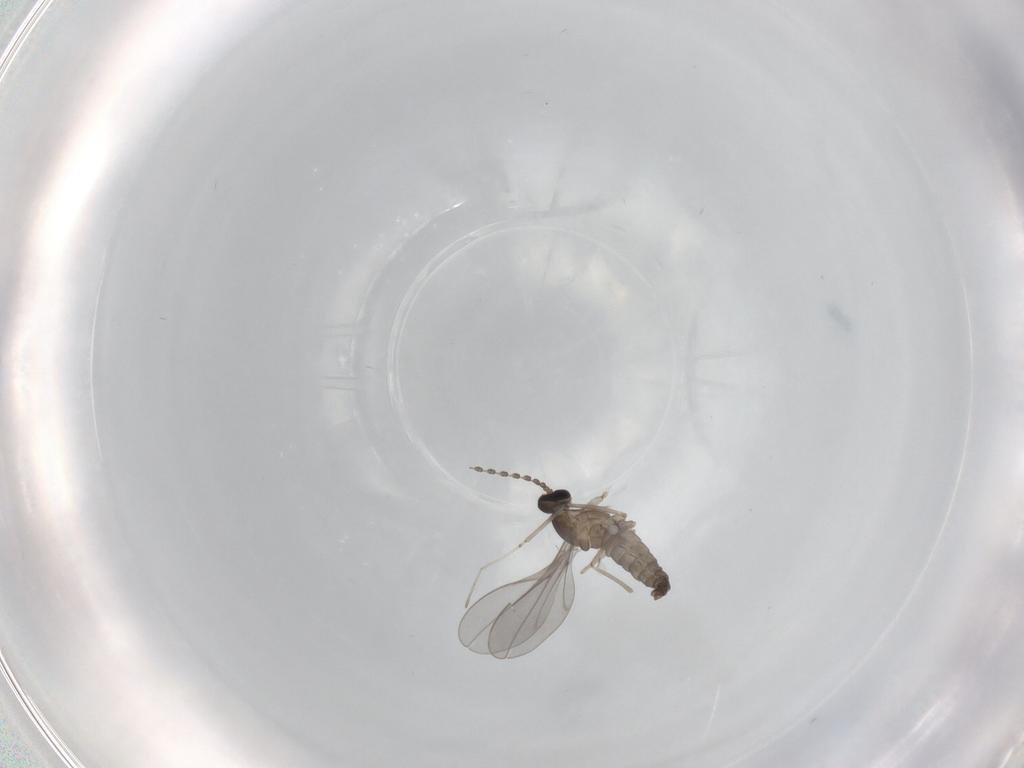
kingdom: Animalia
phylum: Arthropoda
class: Insecta
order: Diptera
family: Cecidomyiidae
